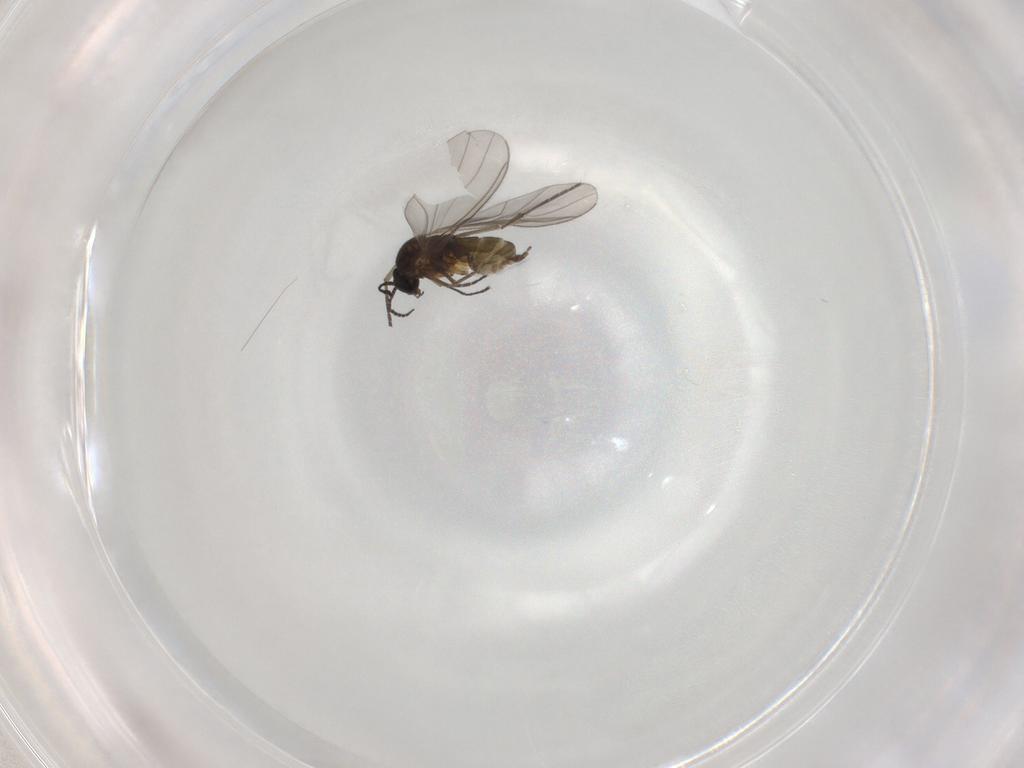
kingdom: Animalia
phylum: Arthropoda
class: Insecta
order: Diptera
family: Sciaridae
